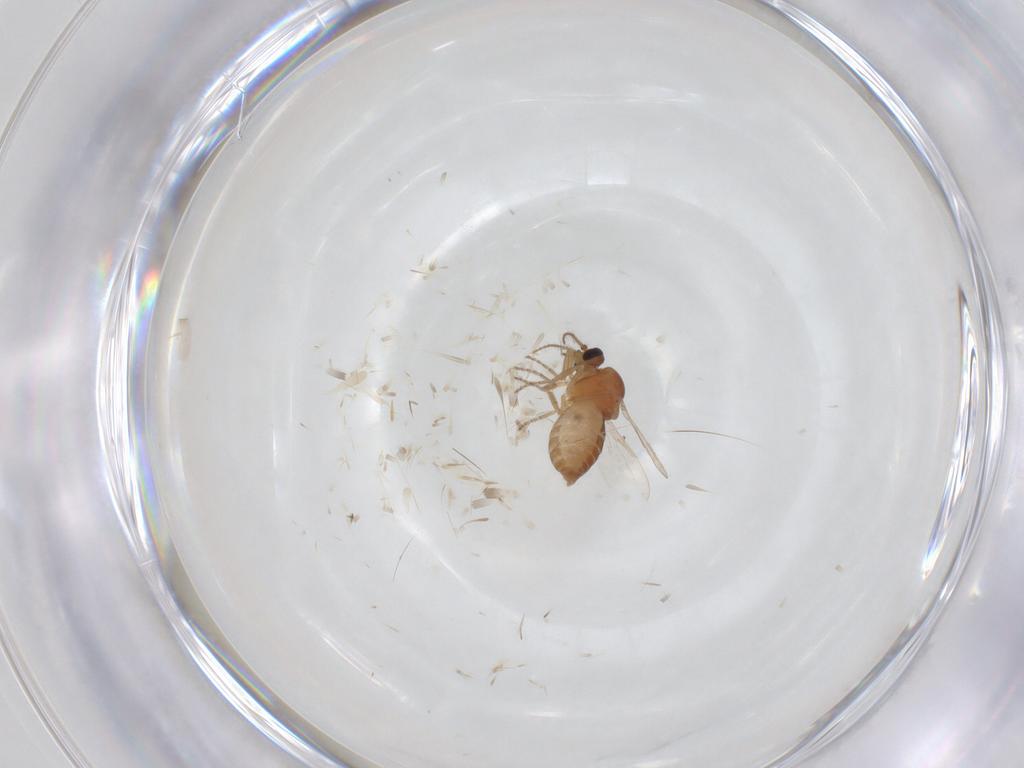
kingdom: Animalia
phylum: Arthropoda
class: Insecta
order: Diptera
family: Ceratopogonidae
